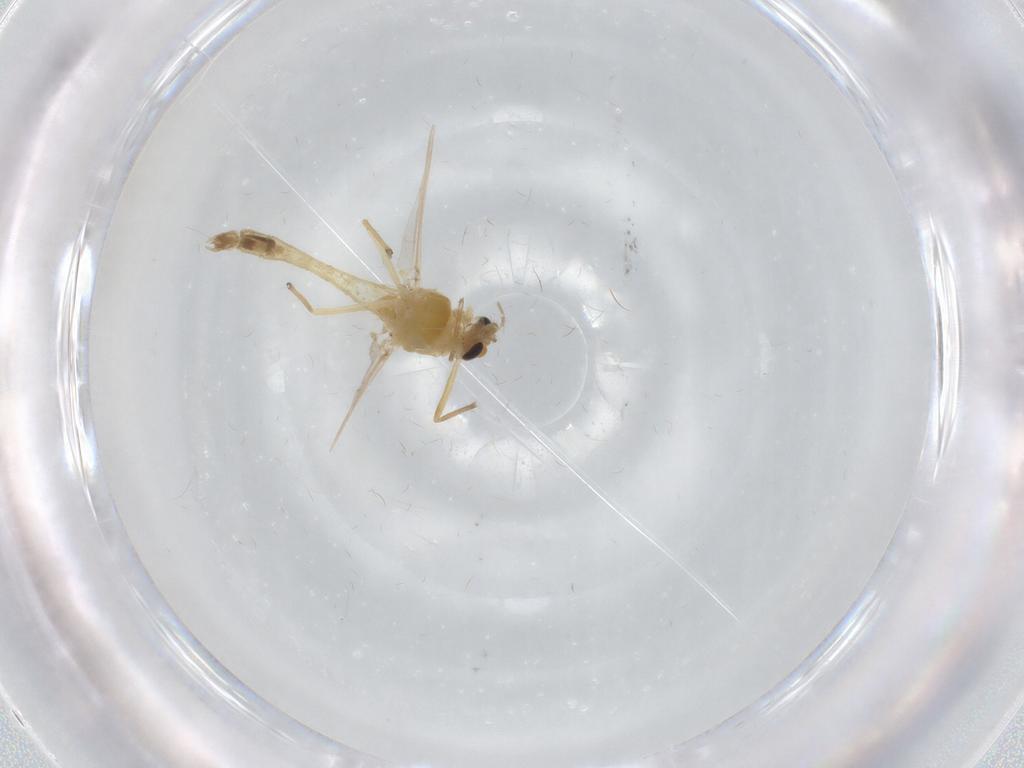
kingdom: Animalia
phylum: Arthropoda
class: Insecta
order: Diptera
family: Chironomidae
